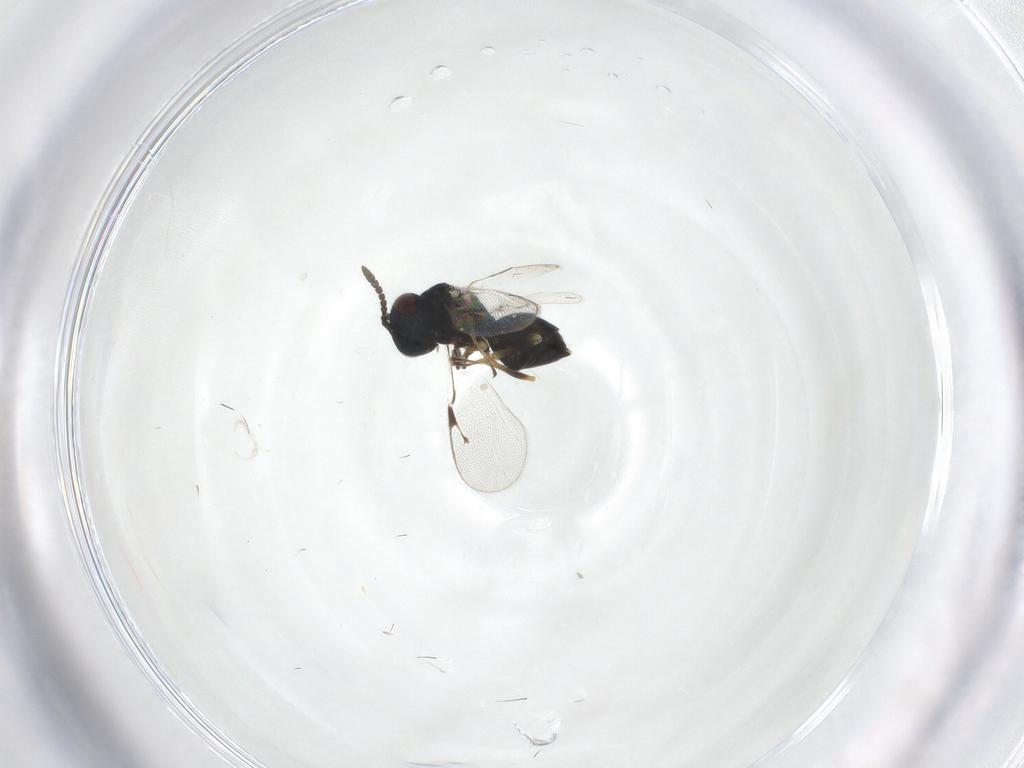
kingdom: Animalia
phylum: Arthropoda
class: Insecta
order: Hymenoptera
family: Pteromalidae
